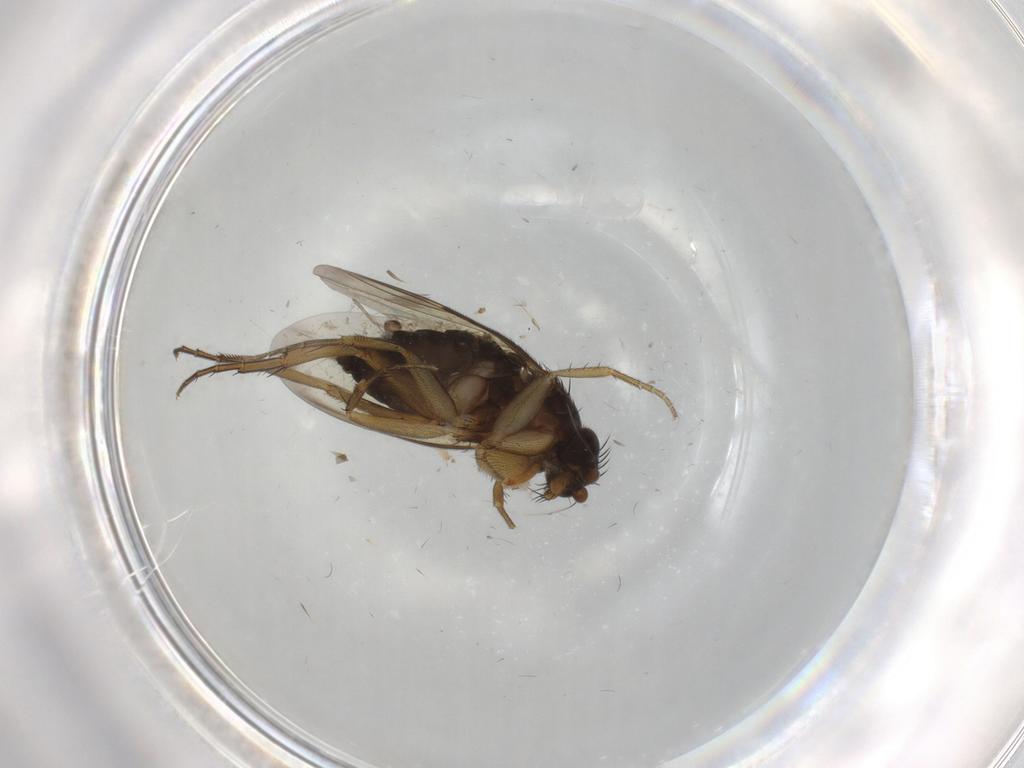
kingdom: Animalia
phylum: Arthropoda
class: Insecta
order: Diptera
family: Phoridae
